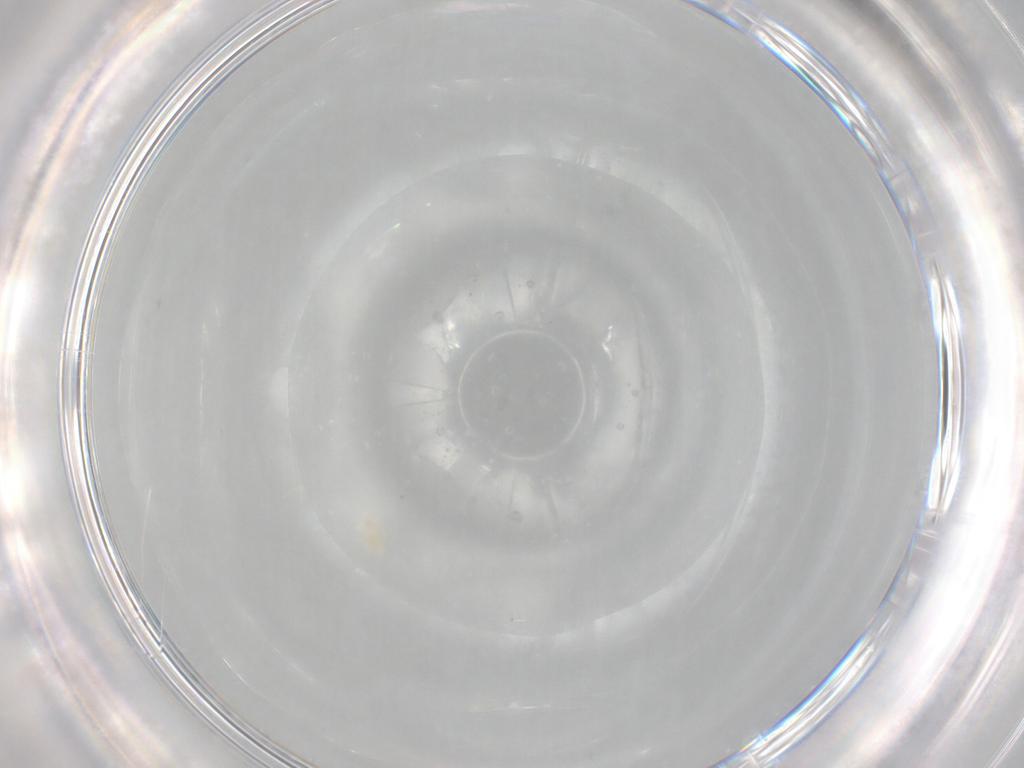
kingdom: Animalia
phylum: Arthropoda
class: Arachnida
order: Trombidiformes
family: Eupodidae
